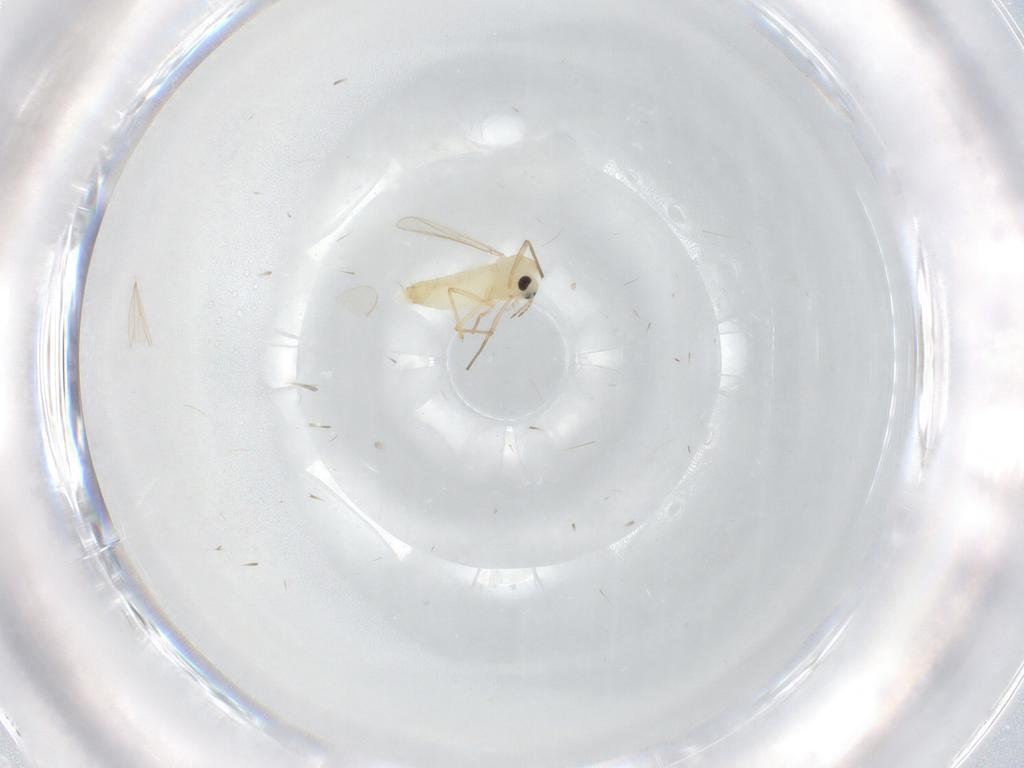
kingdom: Animalia
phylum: Arthropoda
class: Insecta
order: Diptera
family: Chironomidae
